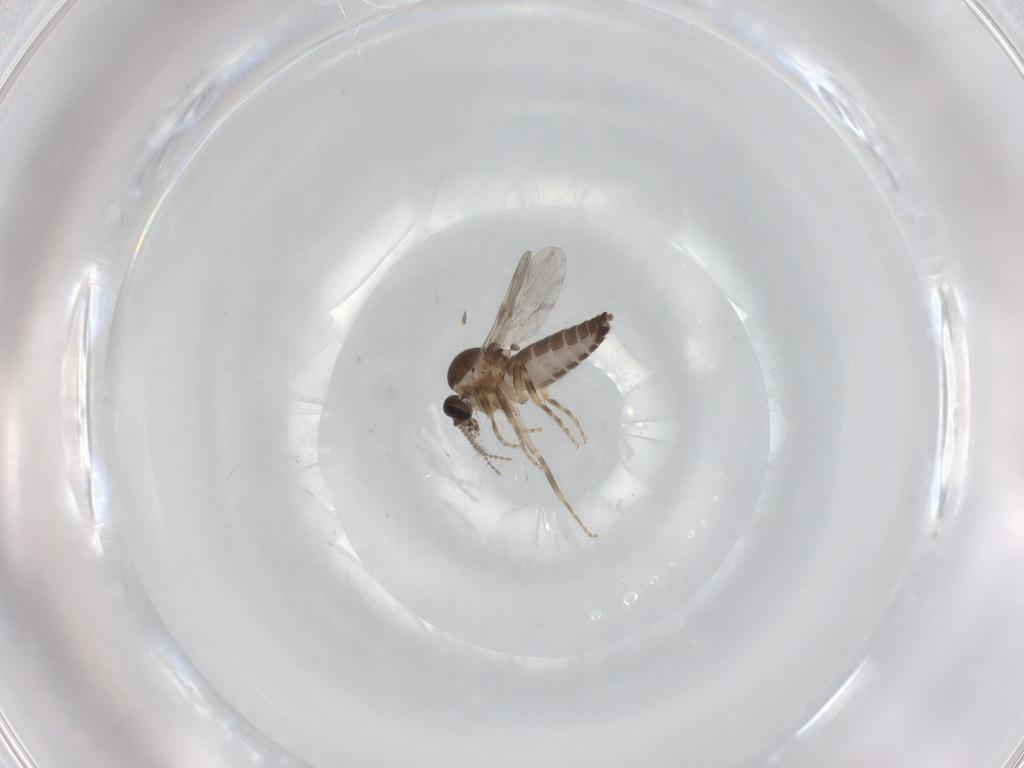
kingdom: Animalia
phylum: Arthropoda
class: Insecta
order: Diptera
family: Ceratopogonidae
